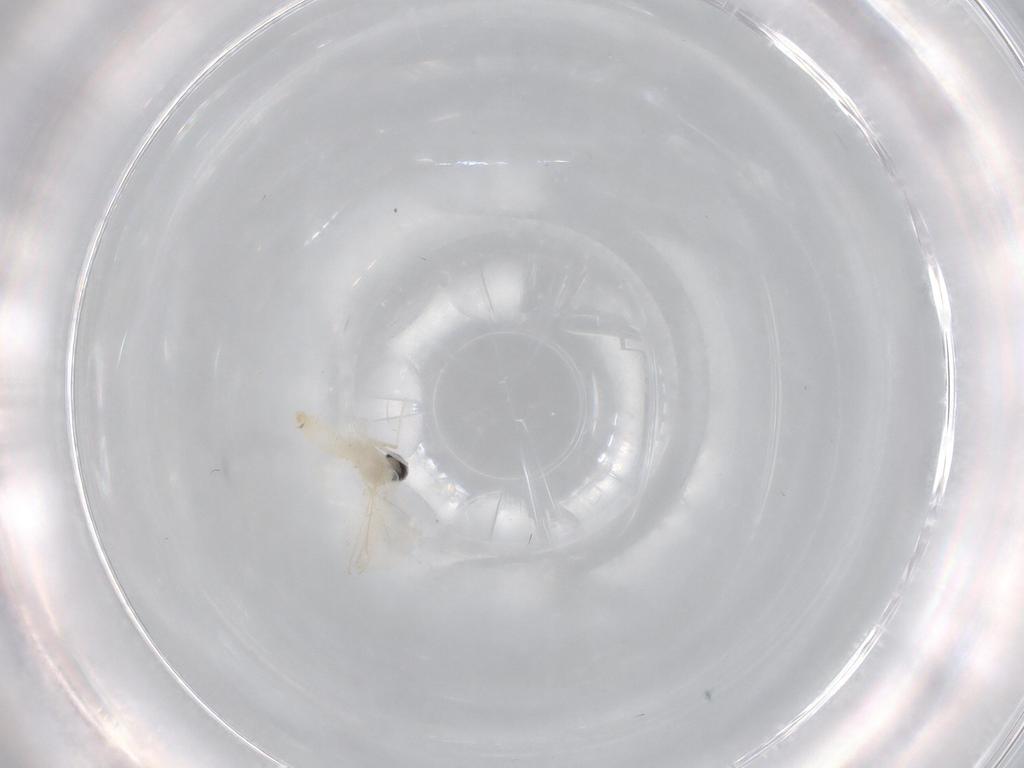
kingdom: Animalia
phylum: Arthropoda
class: Insecta
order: Diptera
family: Cecidomyiidae
